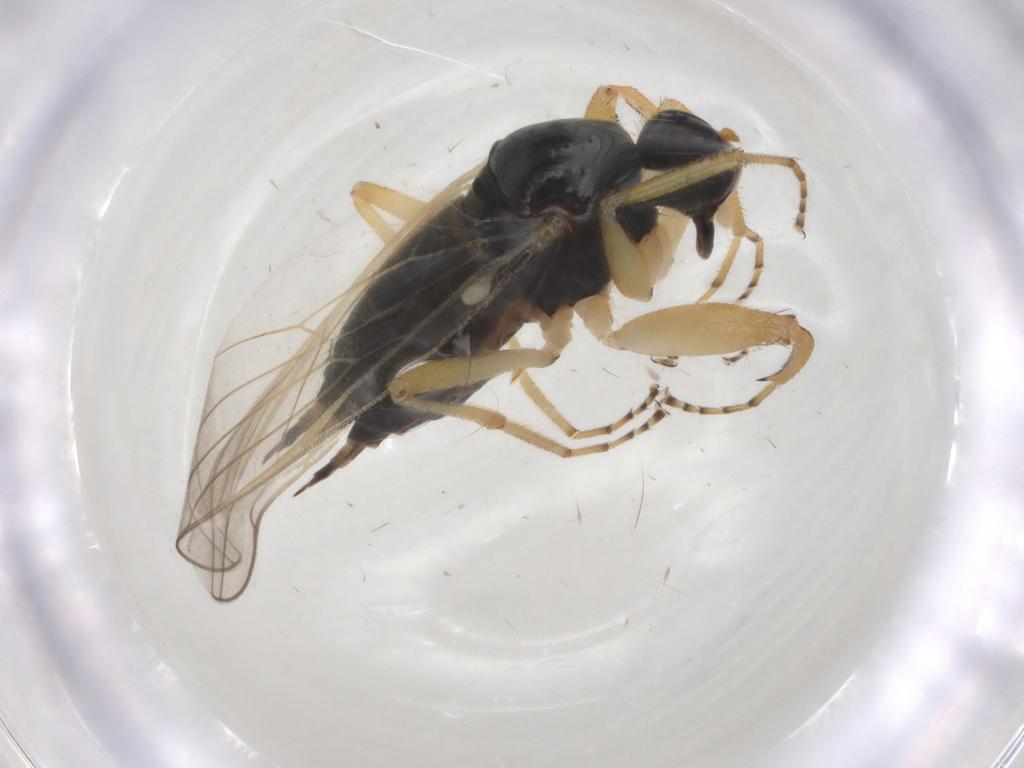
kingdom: Animalia
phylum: Arthropoda
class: Insecta
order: Diptera
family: Hybotidae
